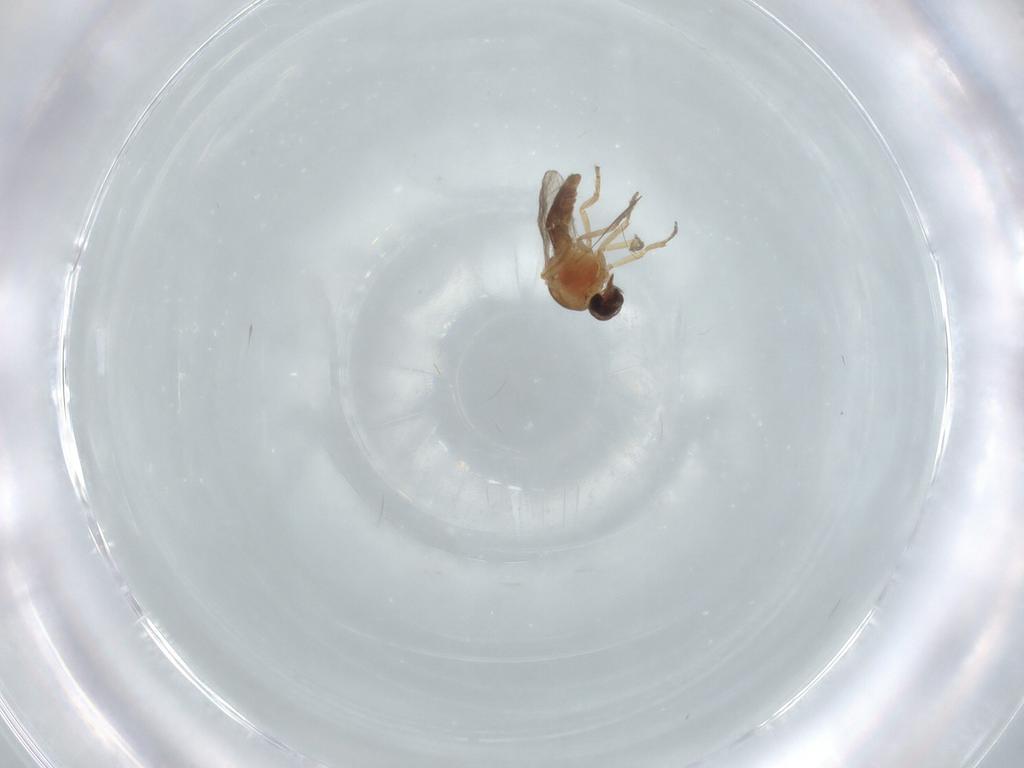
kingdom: Animalia
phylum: Arthropoda
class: Insecta
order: Diptera
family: Ceratopogonidae
